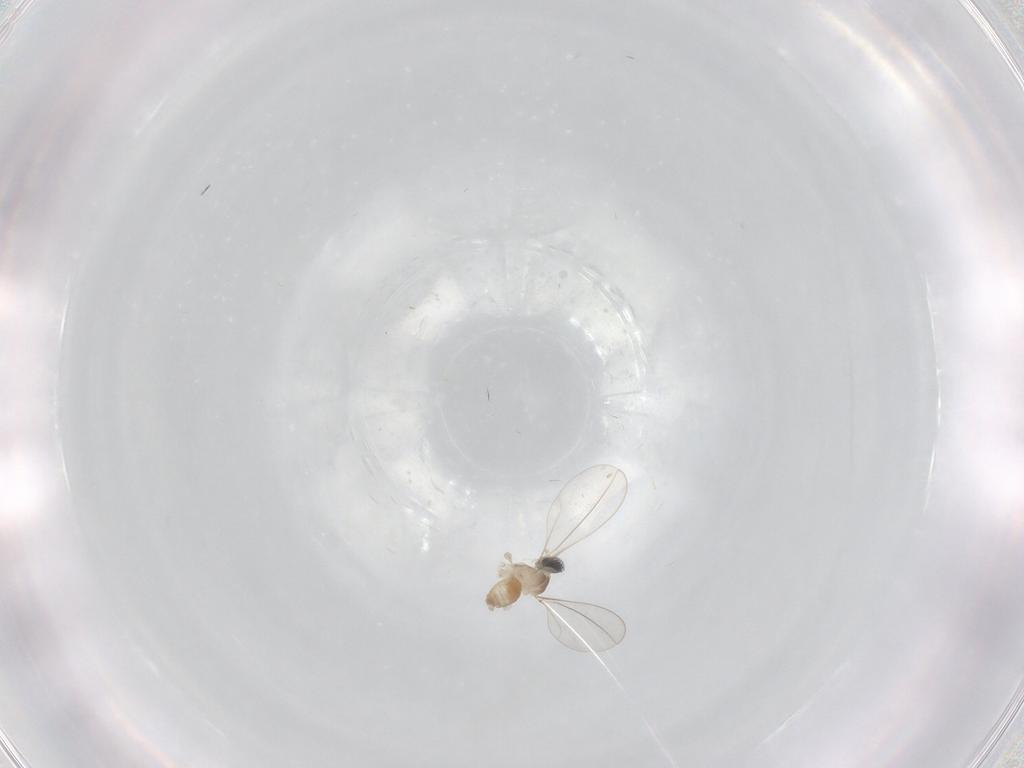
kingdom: Animalia
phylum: Arthropoda
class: Insecta
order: Diptera
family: Cecidomyiidae
